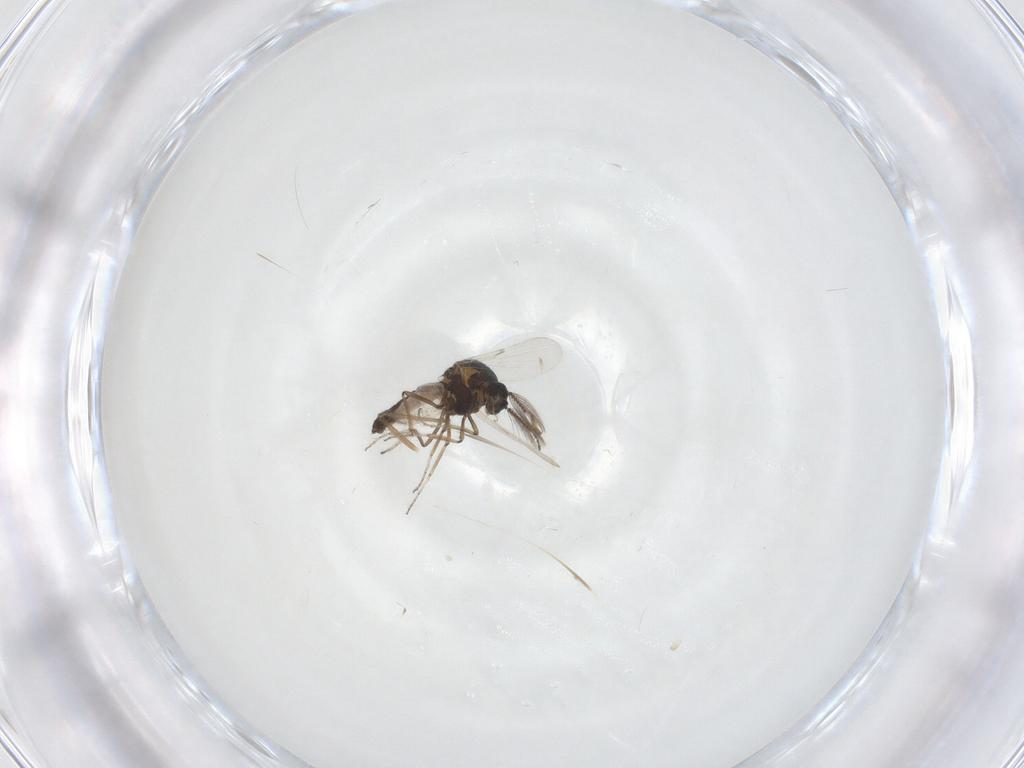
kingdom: Animalia
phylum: Arthropoda
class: Insecta
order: Diptera
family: Ceratopogonidae
